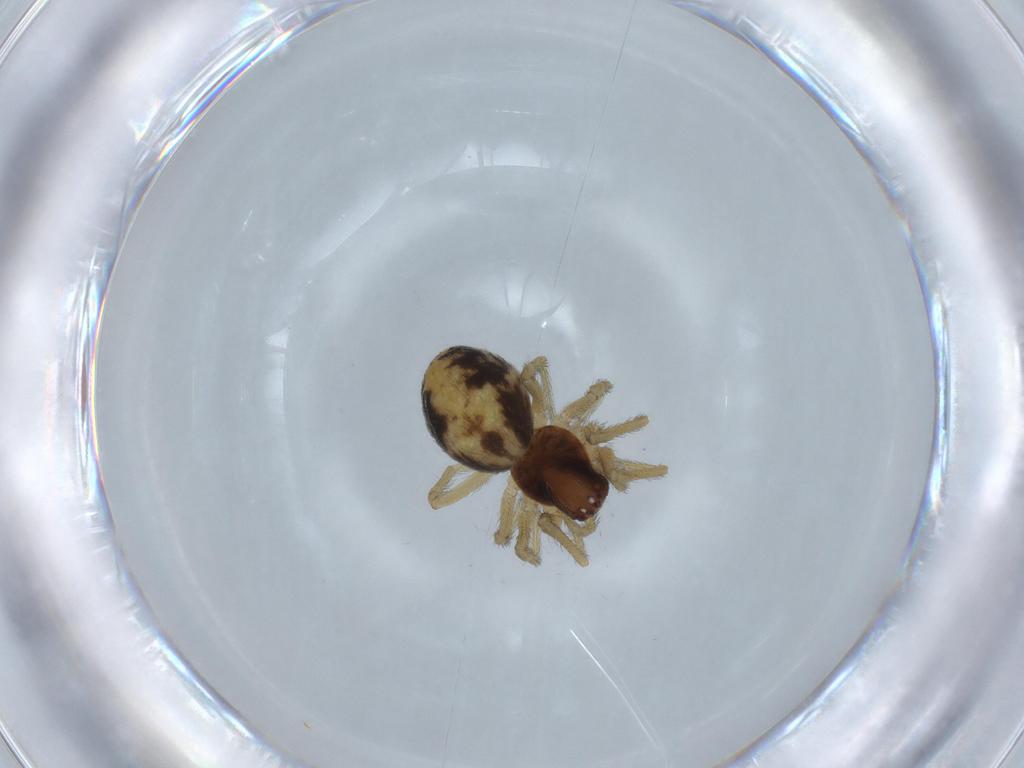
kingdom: Animalia
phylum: Arthropoda
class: Arachnida
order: Araneae
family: Dictynidae
